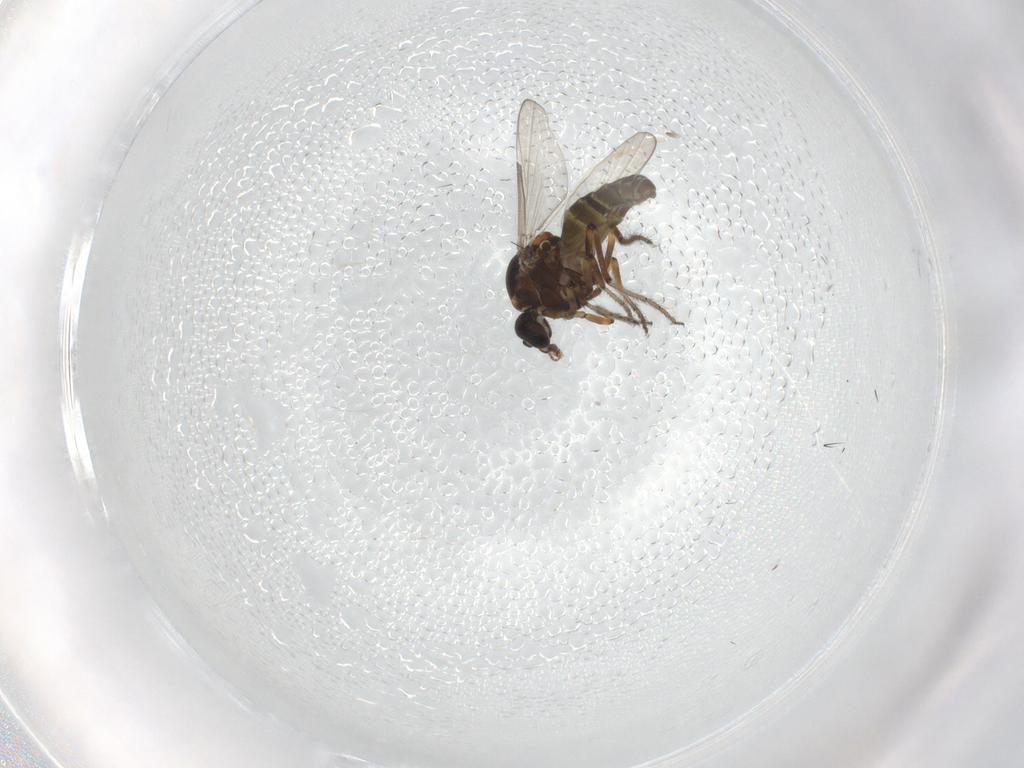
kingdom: Animalia
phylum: Arthropoda
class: Insecta
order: Diptera
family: Ceratopogonidae
